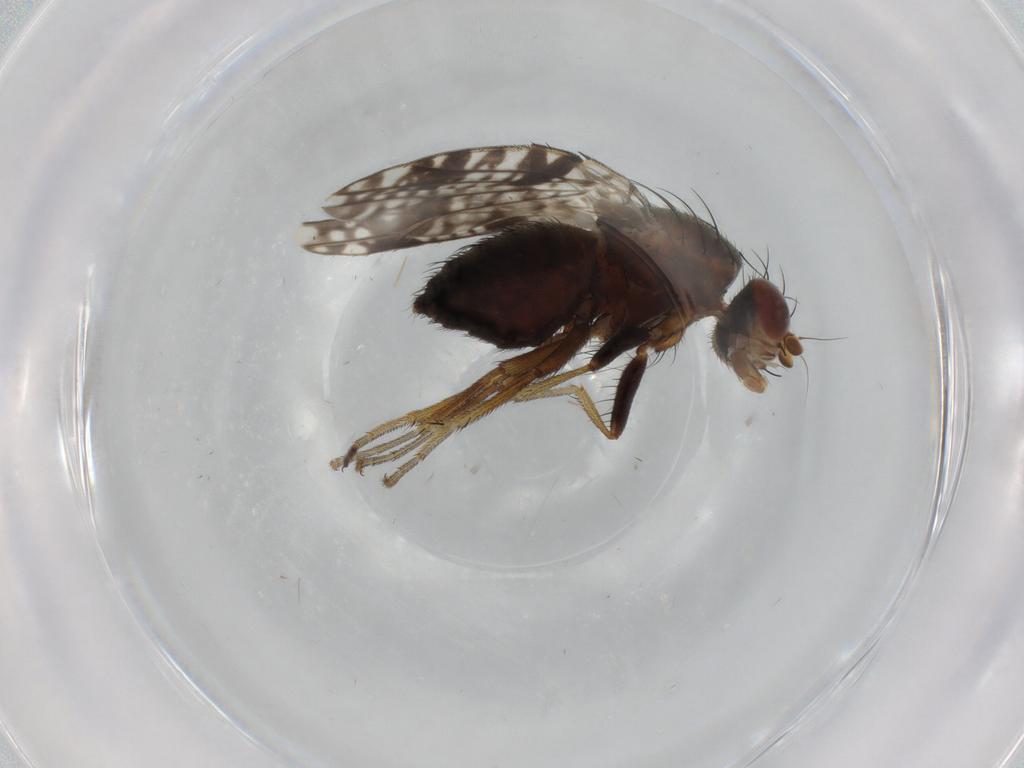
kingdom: Animalia
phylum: Arthropoda
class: Insecta
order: Diptera
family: Tephritidae
